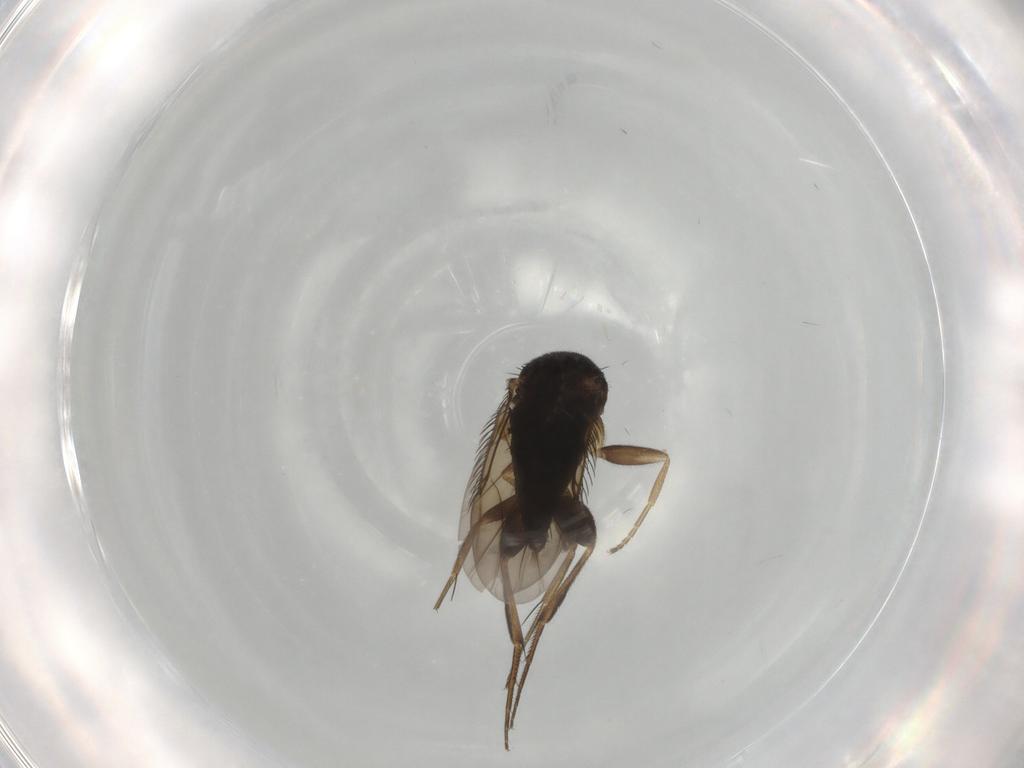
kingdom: Animalia
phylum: Arthropoda
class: Insecta
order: Diptera
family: Phoridae
